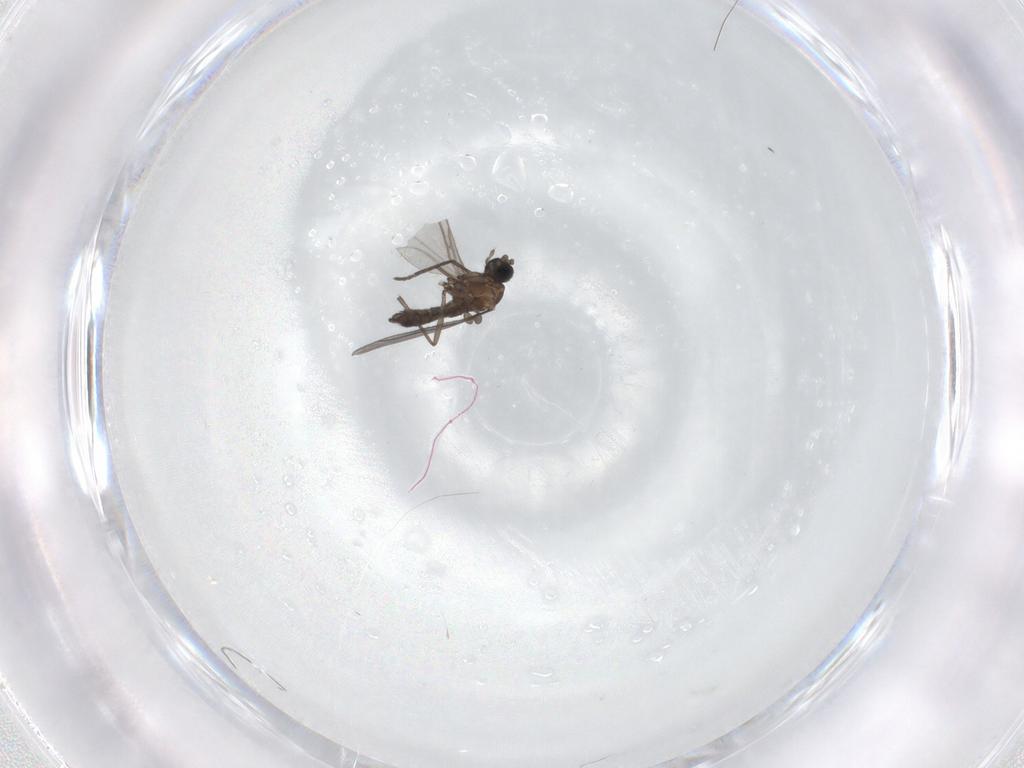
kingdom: Animalia
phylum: Arthropoda
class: Insecta
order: Diptera
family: Sciaridae
